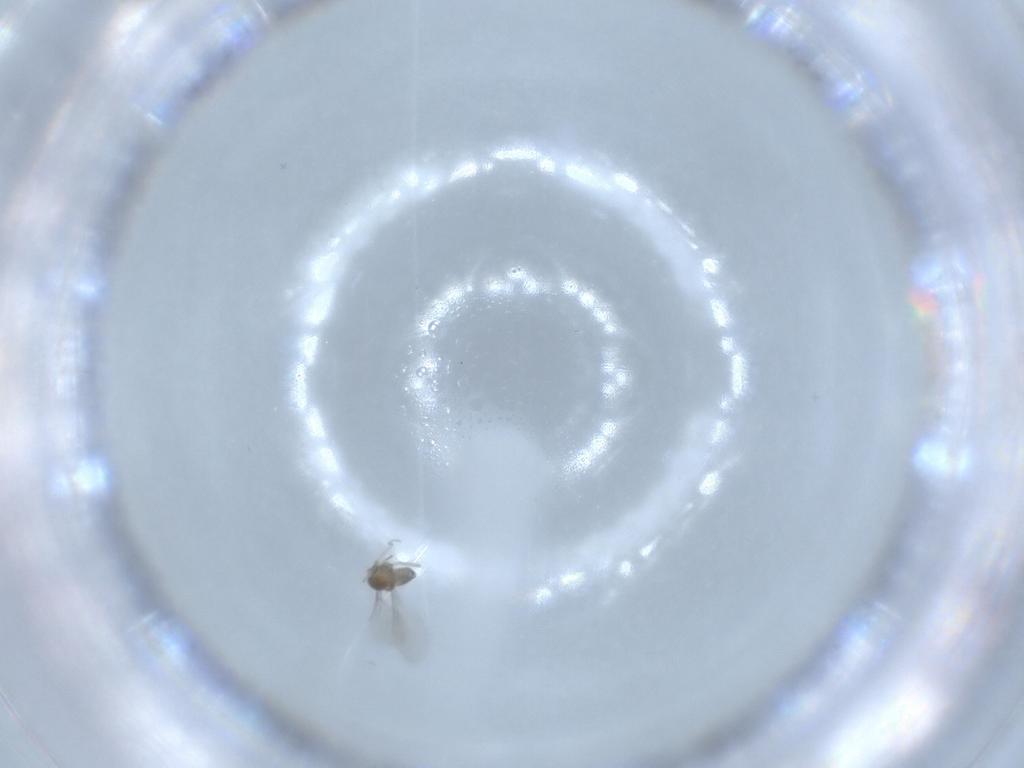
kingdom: Animalia
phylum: Arthropoda
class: Insecta
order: Diptera
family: Cecidomyiidae
